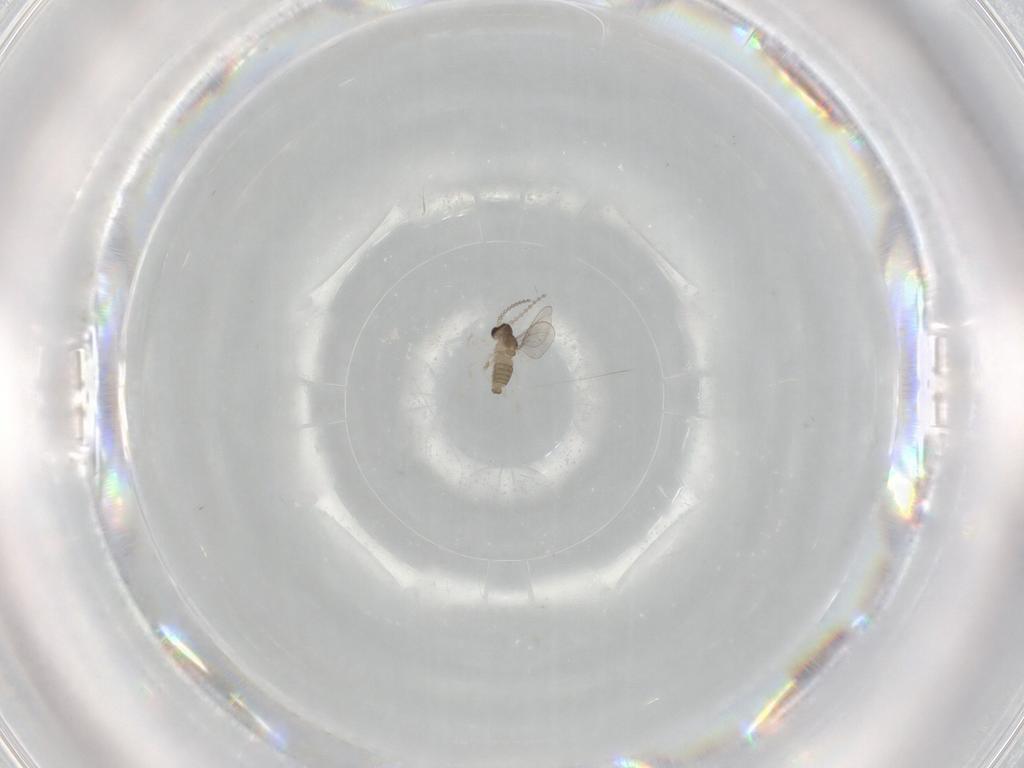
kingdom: Animalia
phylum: Arthropoda
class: Insecta
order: Diptera
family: Cecidomyiidae
